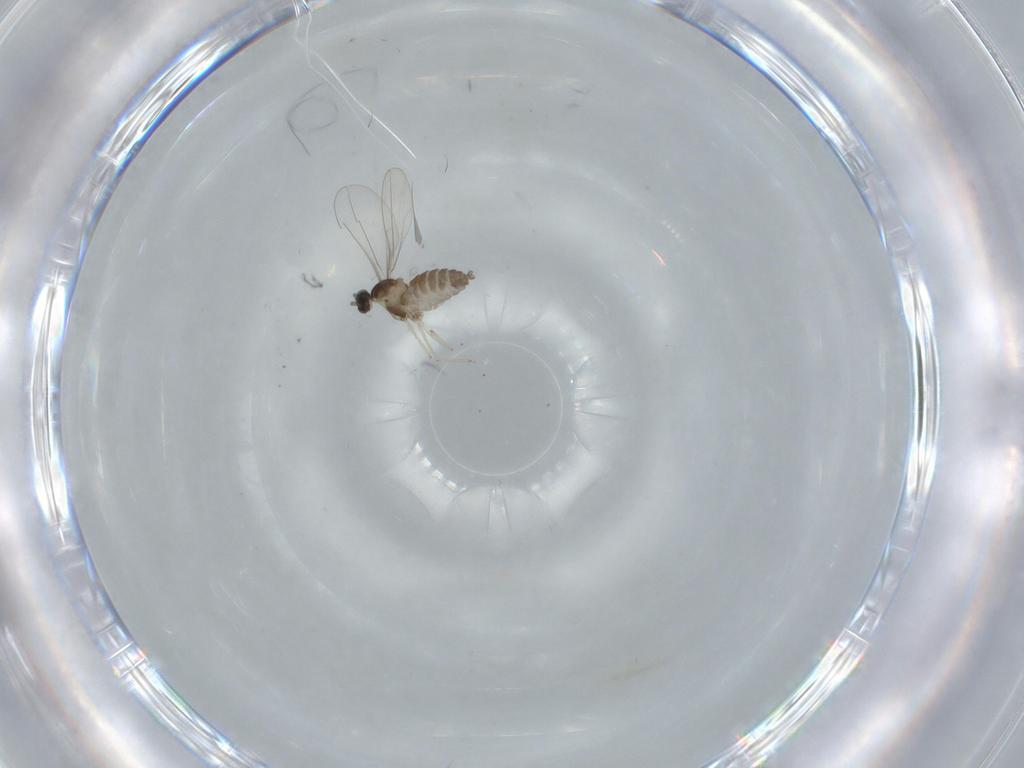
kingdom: Animalia
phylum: Arthropoda
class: Insecta
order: Diptera
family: Cecidomyiidae
